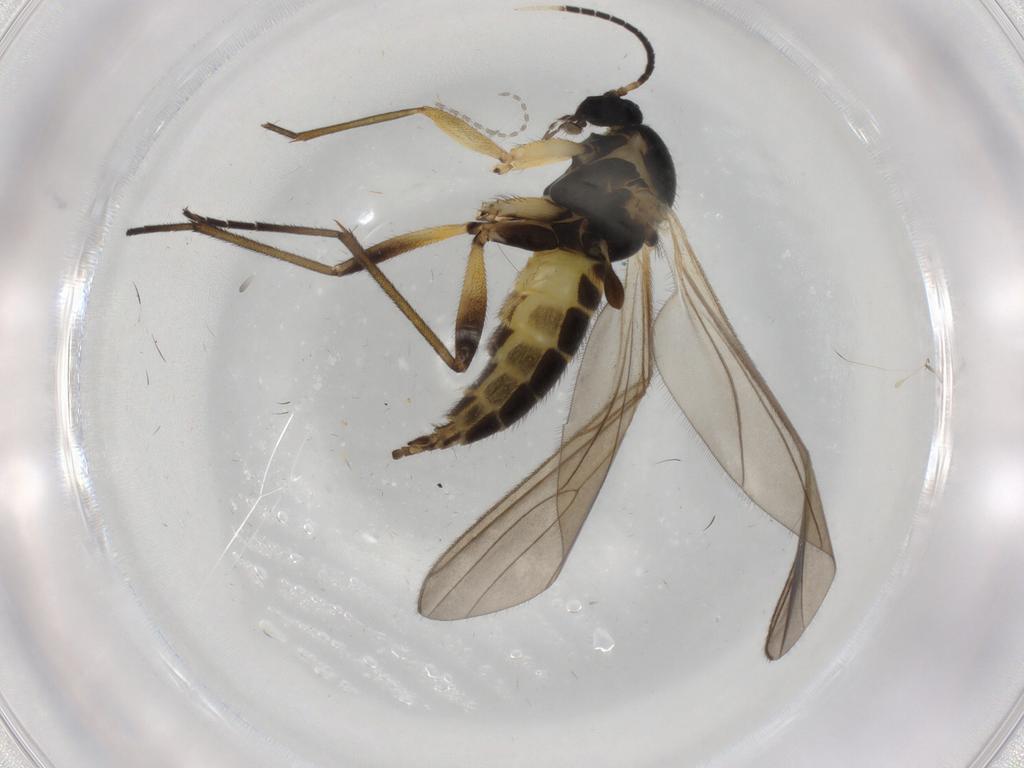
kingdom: Animalia
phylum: Arthropoda
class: Insecta
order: Diptera
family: Sciaridae
